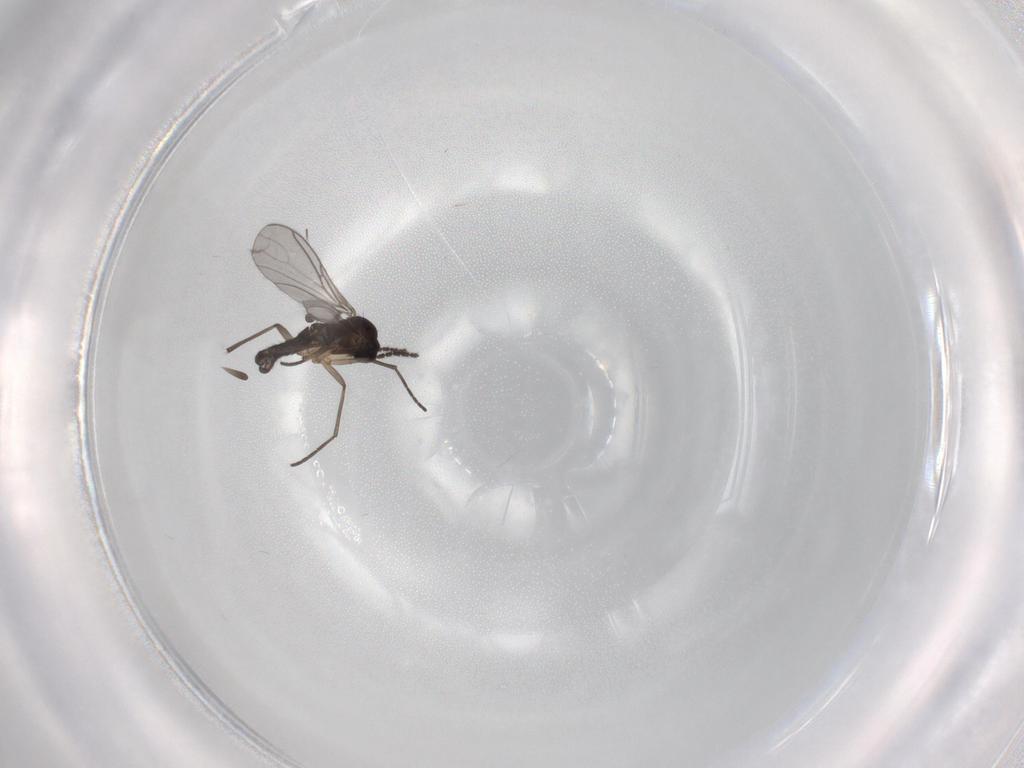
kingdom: Animalia
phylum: Arthropoda
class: Insecta
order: Diptera
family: Sciaridae
